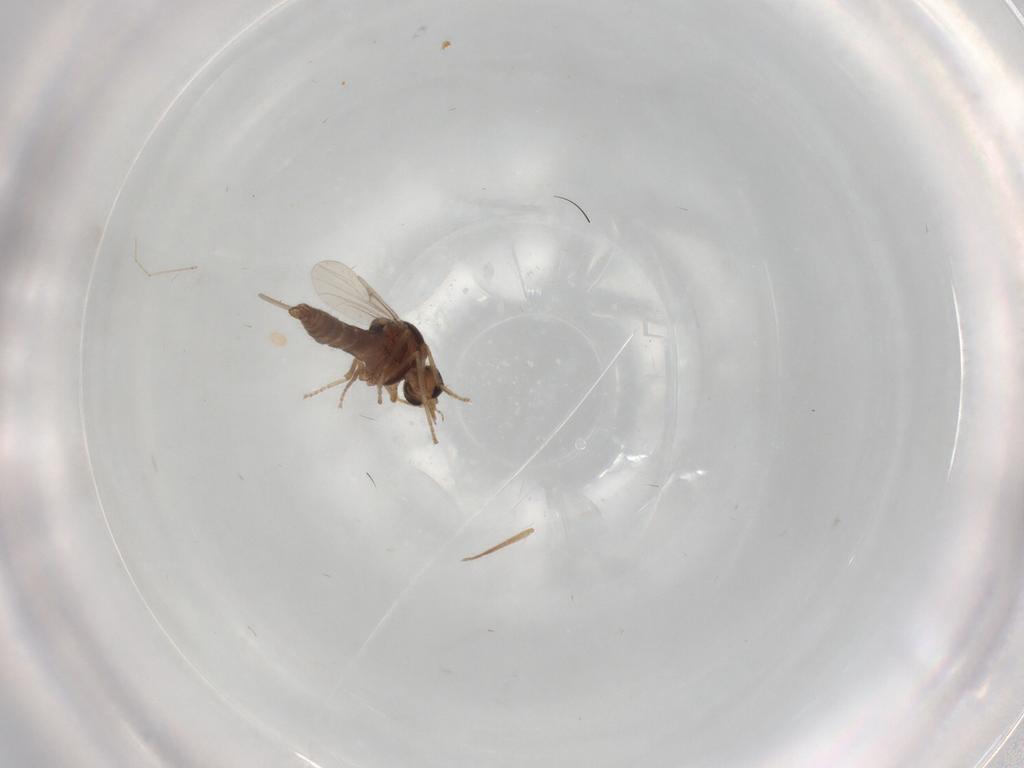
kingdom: Animalia
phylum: Arthropoda
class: Insecta
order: Diptera
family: Ceratopogonidae
